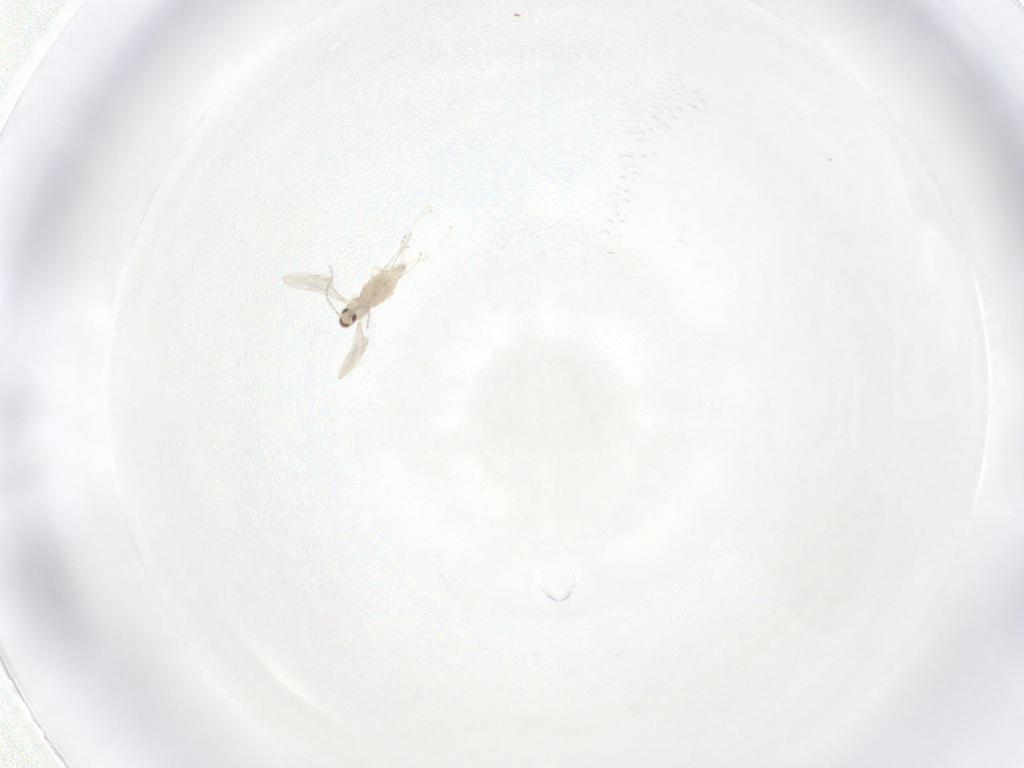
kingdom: Animalia
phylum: Arthropoda
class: Insecta
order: Diptera
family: Cecidomyiidae
